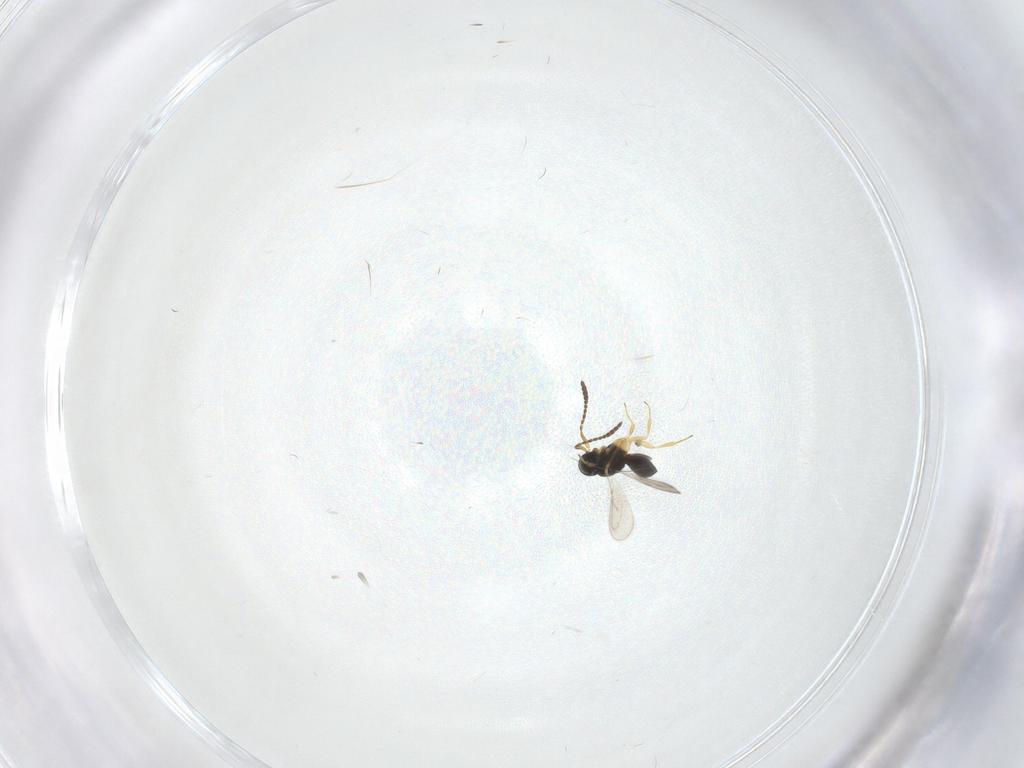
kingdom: Animalia
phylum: Arthropoda
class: Insecta
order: Hymenoptera
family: Scelionidae
